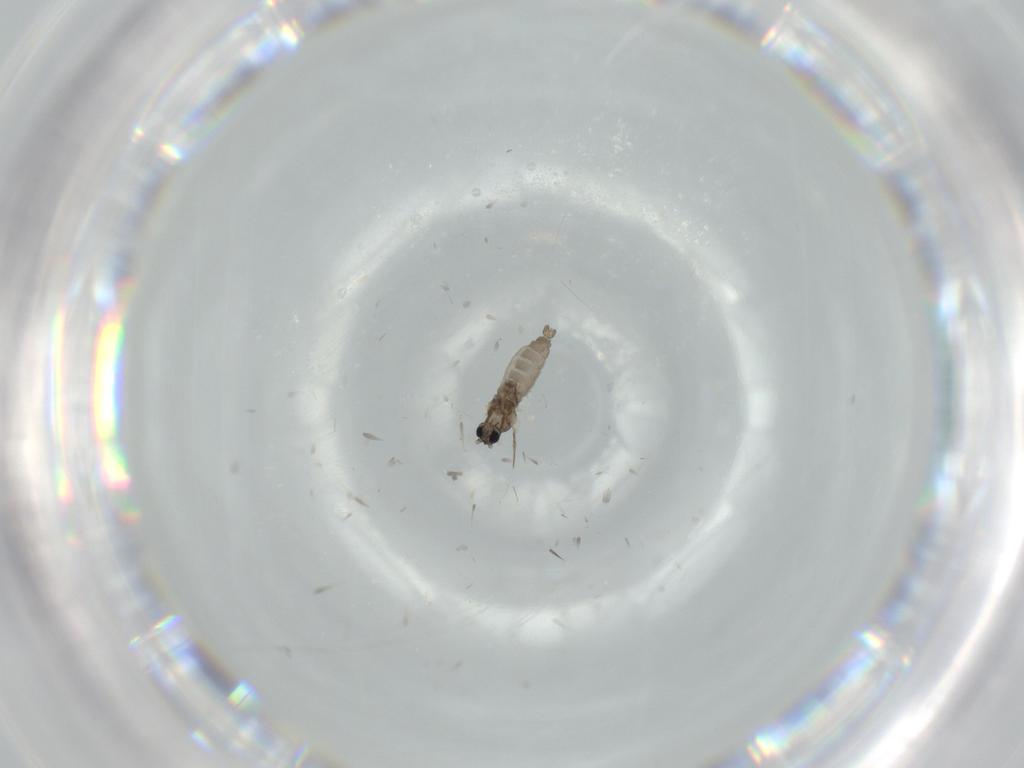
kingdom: Animalia
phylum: Arthropoda
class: Insecta
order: Diptera
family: Cecidomyiidae
